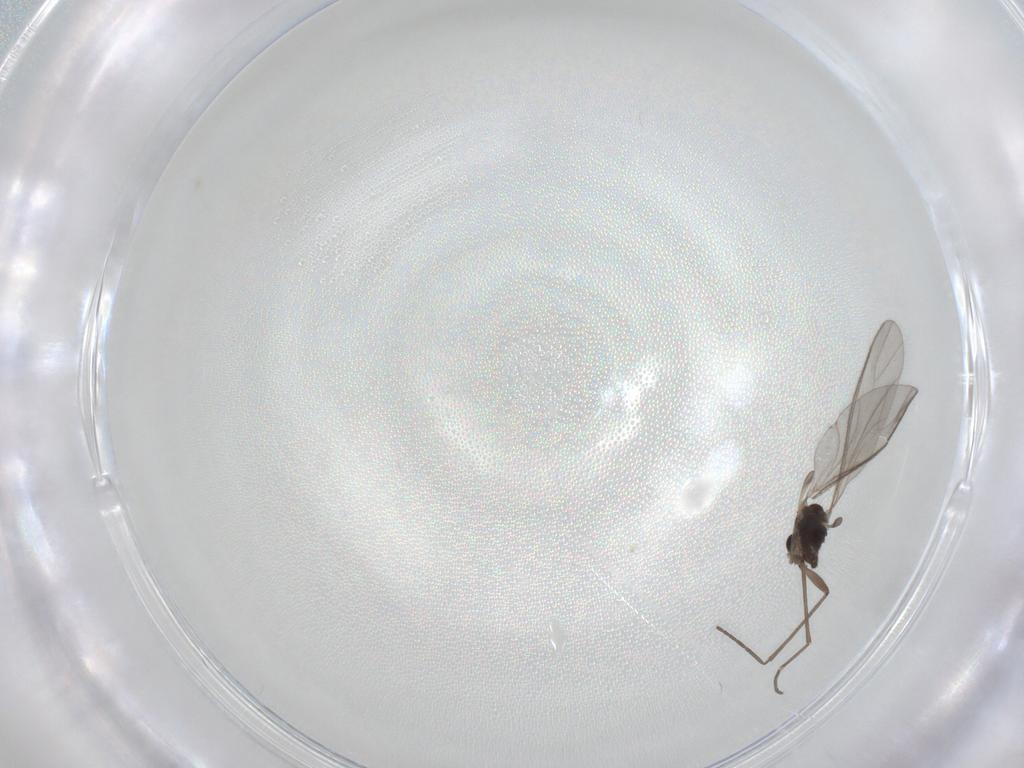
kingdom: Animalia
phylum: Arthropoda
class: Insecta
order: Diptera
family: Sciaridae
